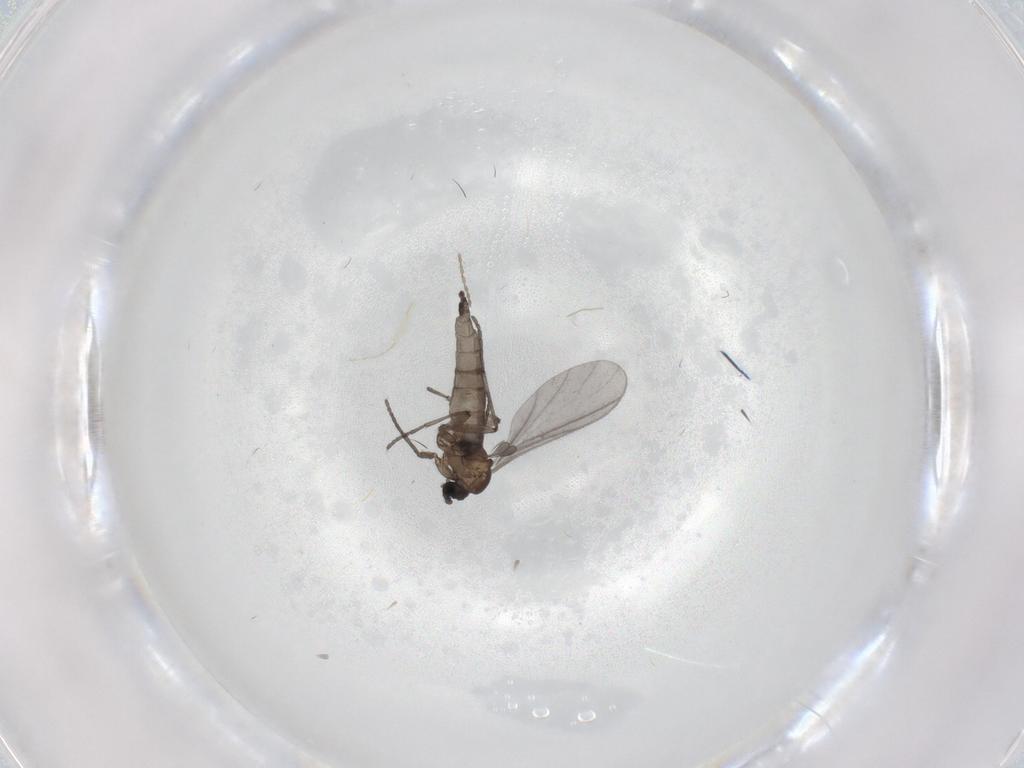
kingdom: Animalia
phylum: Arthropoda
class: Insecta
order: Diptera
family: Sciaridae
